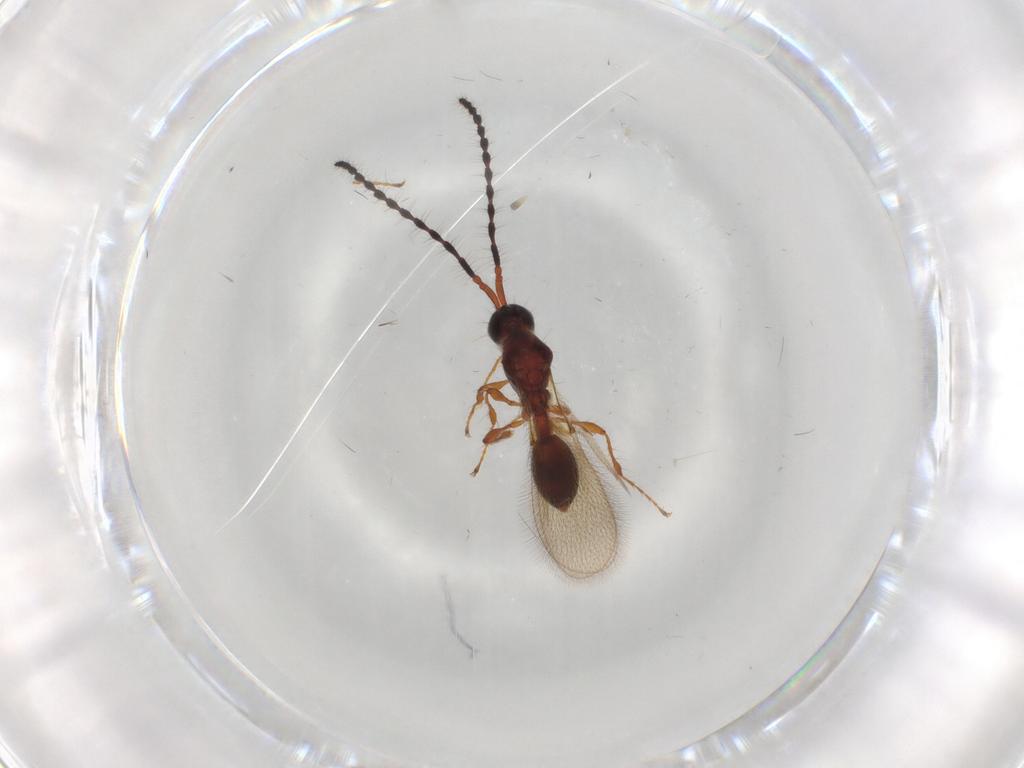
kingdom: Animalia
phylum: Arthropoda
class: Insecta
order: Hymenoptera
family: Diapriidae
